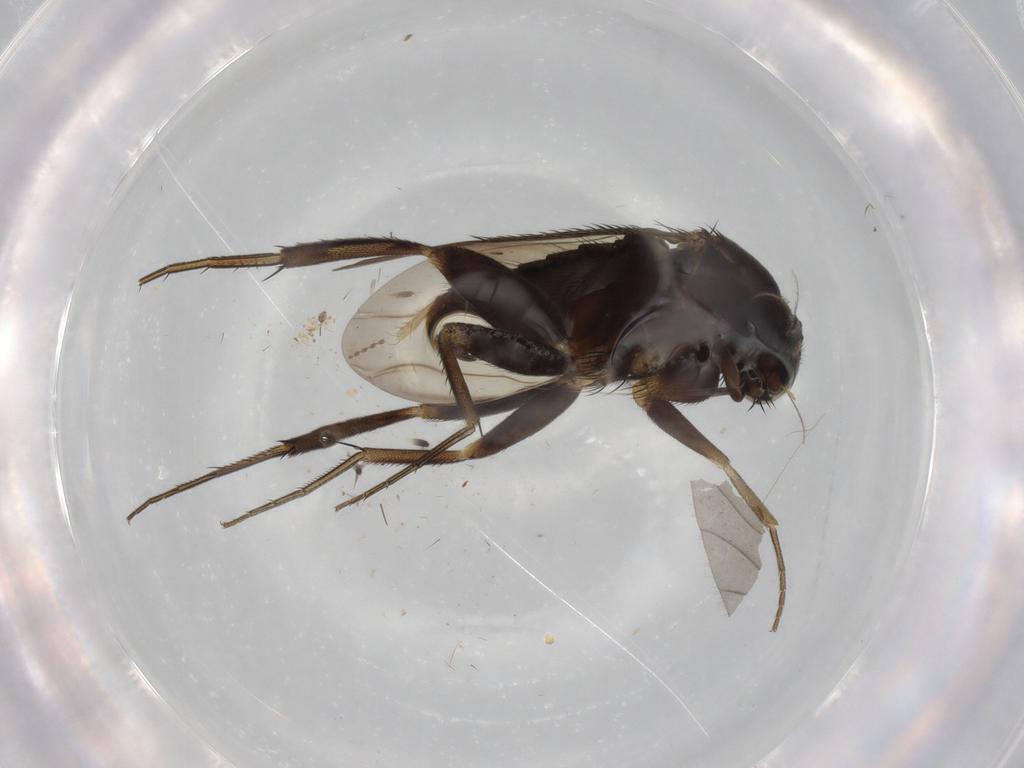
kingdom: Animalia
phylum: Arthropoda
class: Insecta
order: Diptera
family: Phoridae
